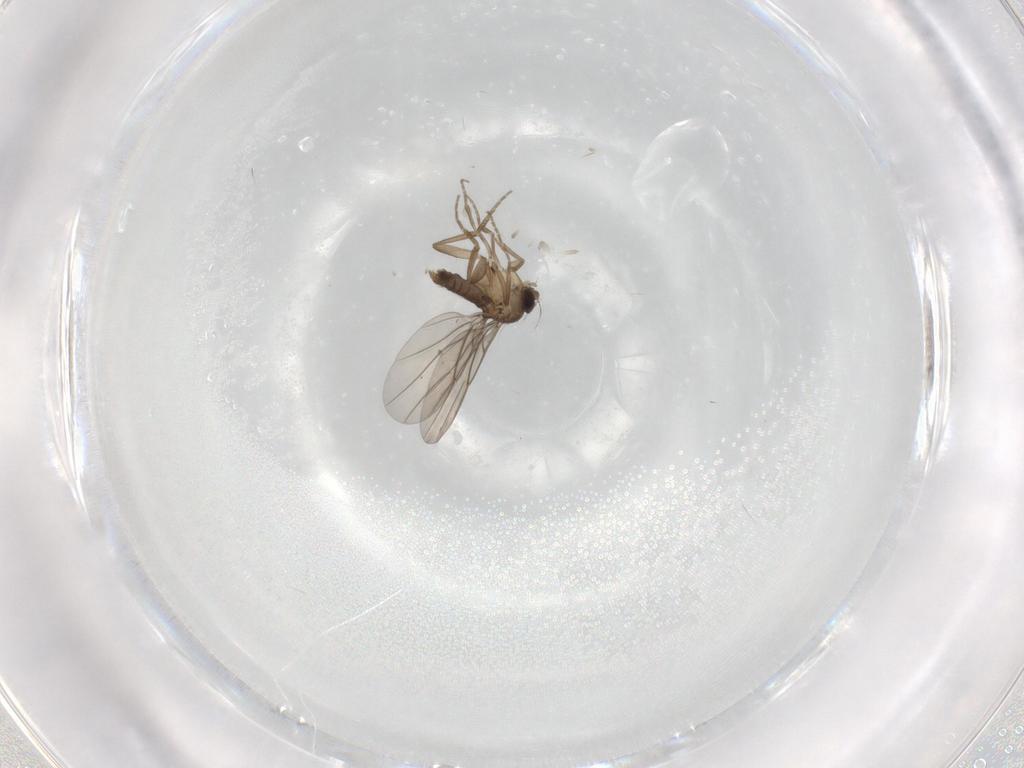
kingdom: Animalia
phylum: Arthropoda
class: Insecta
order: Diptera
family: Phoridae
